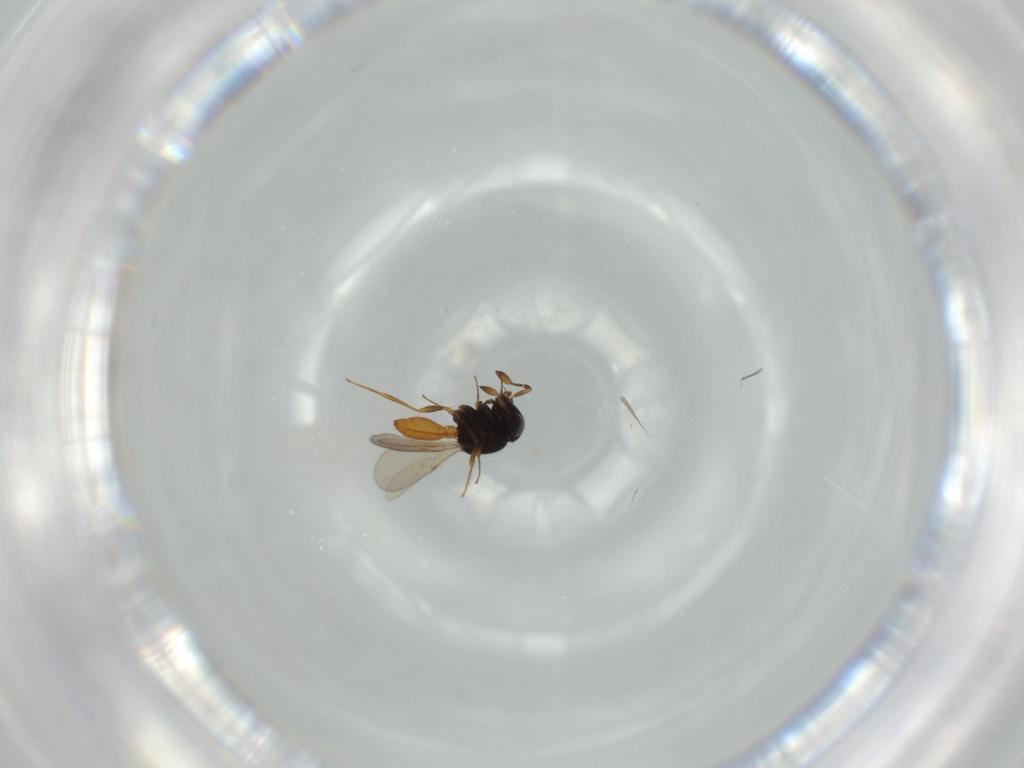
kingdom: Animalia
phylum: Arthropoda
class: Insecta
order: Hymenoptera
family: Scelionidae
